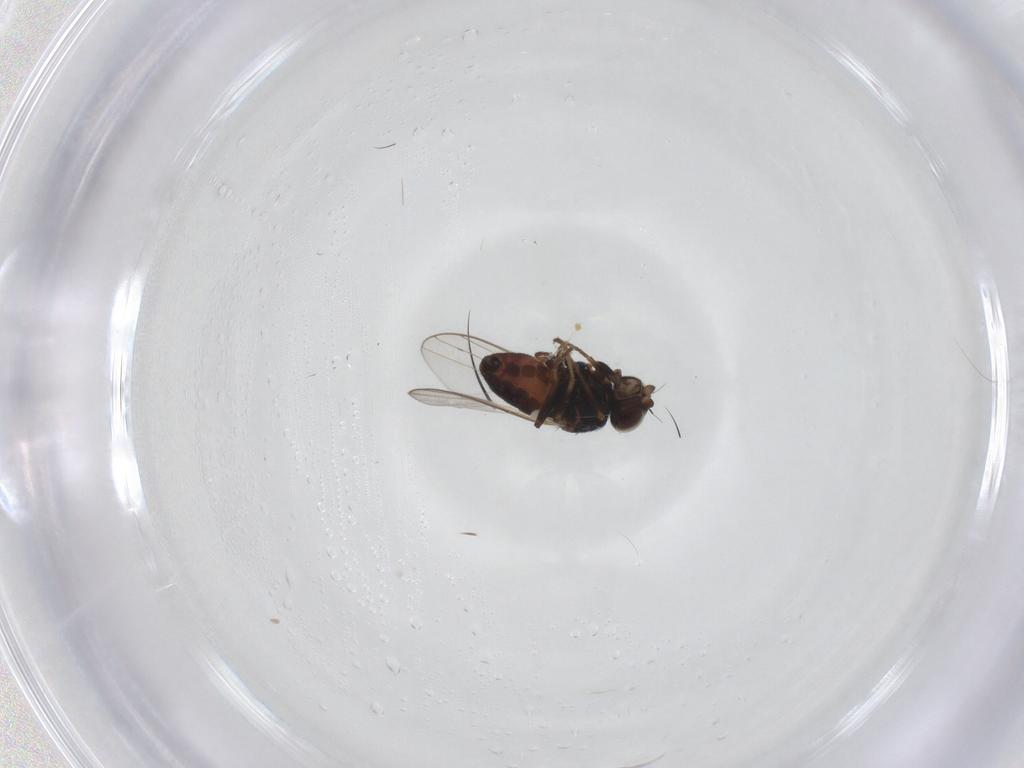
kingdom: Animalia
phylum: Arthropoda
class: Insecta
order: Diptera
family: Chloropidae
